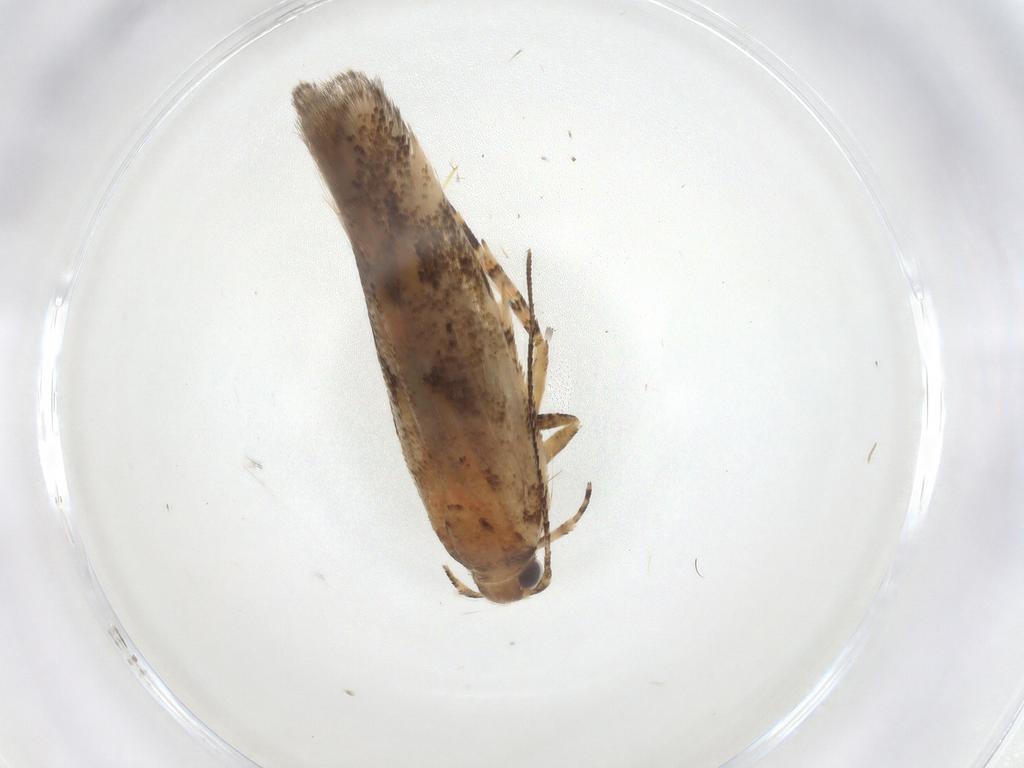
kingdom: Animalia
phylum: Arthropoda
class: Insecta
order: Lepidoptera
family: Gelechiidae
